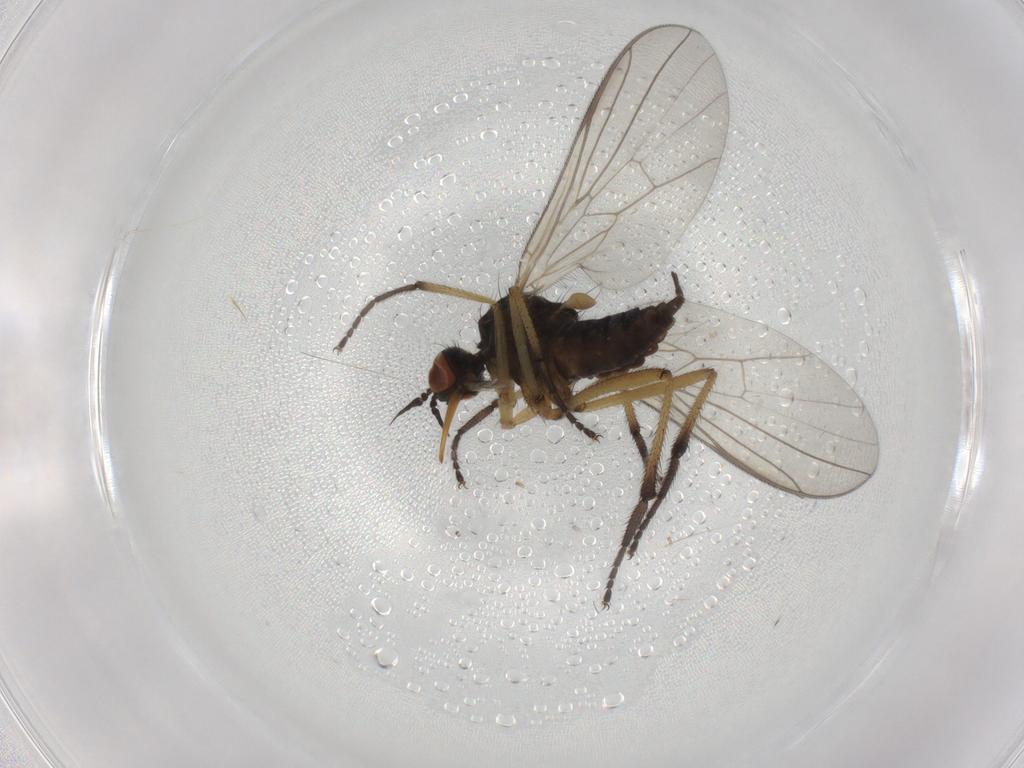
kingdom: Animalia
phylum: Arthropoda
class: Insecta
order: Diptera
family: Empididae
